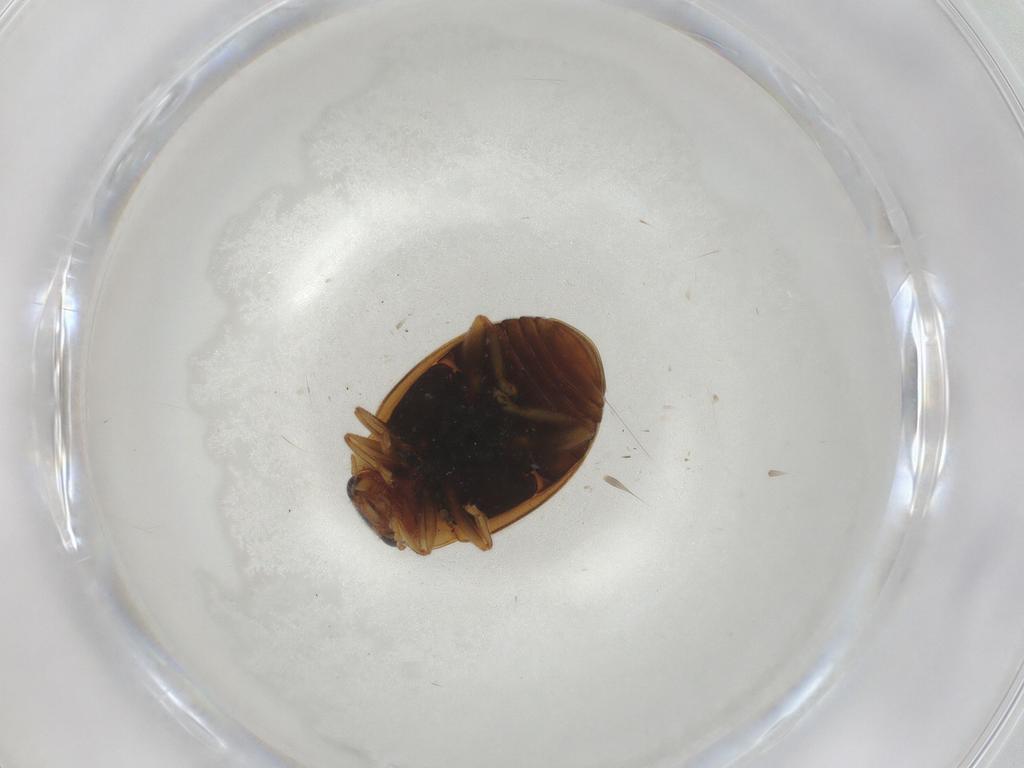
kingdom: Animalia
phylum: Arthropoda
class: Insecta
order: Coleoptera
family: Coccinellidae
